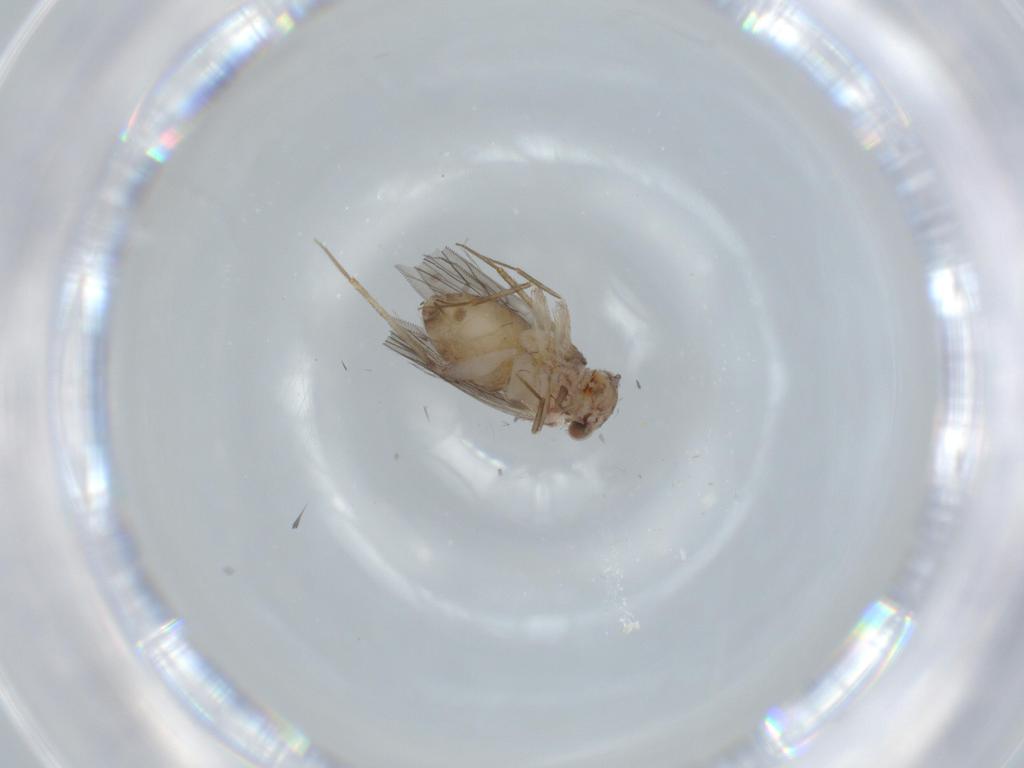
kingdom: Animalia
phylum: Arthropoda
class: Insecta
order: Psocodea
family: Lepidopsocidae
